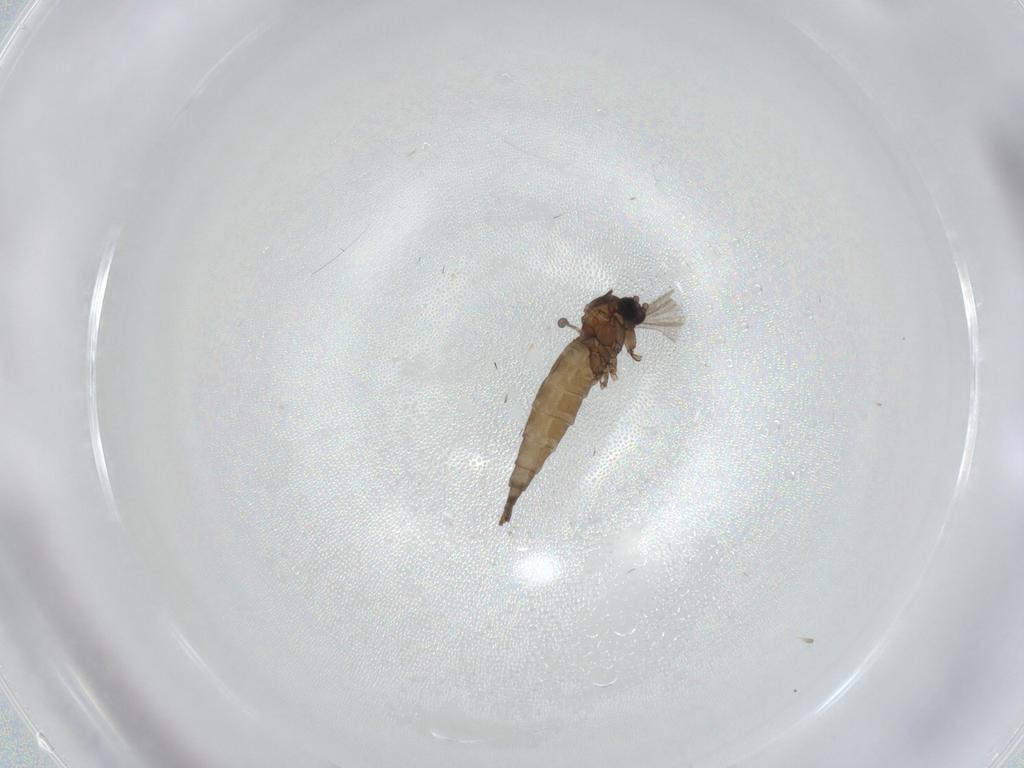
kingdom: Animalia
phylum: Arthropoda
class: Insecta
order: Diptera
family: Sciaridae
